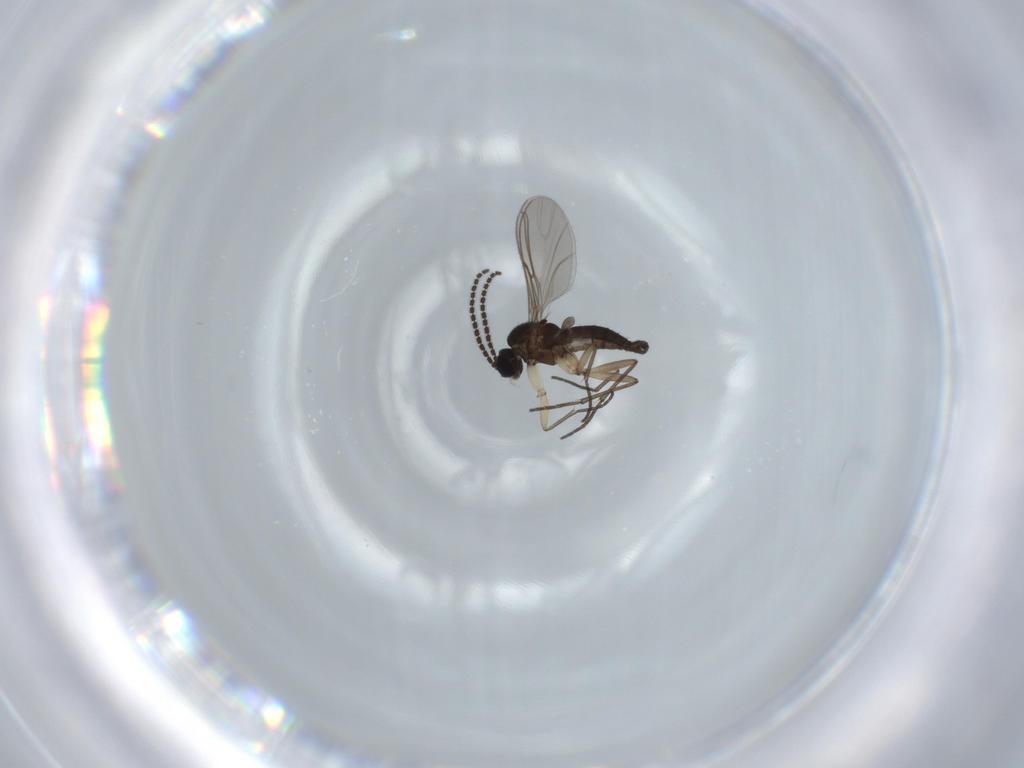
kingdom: Animalia
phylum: Arthropoda
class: Insecta
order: Diptera
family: Sciaridae
